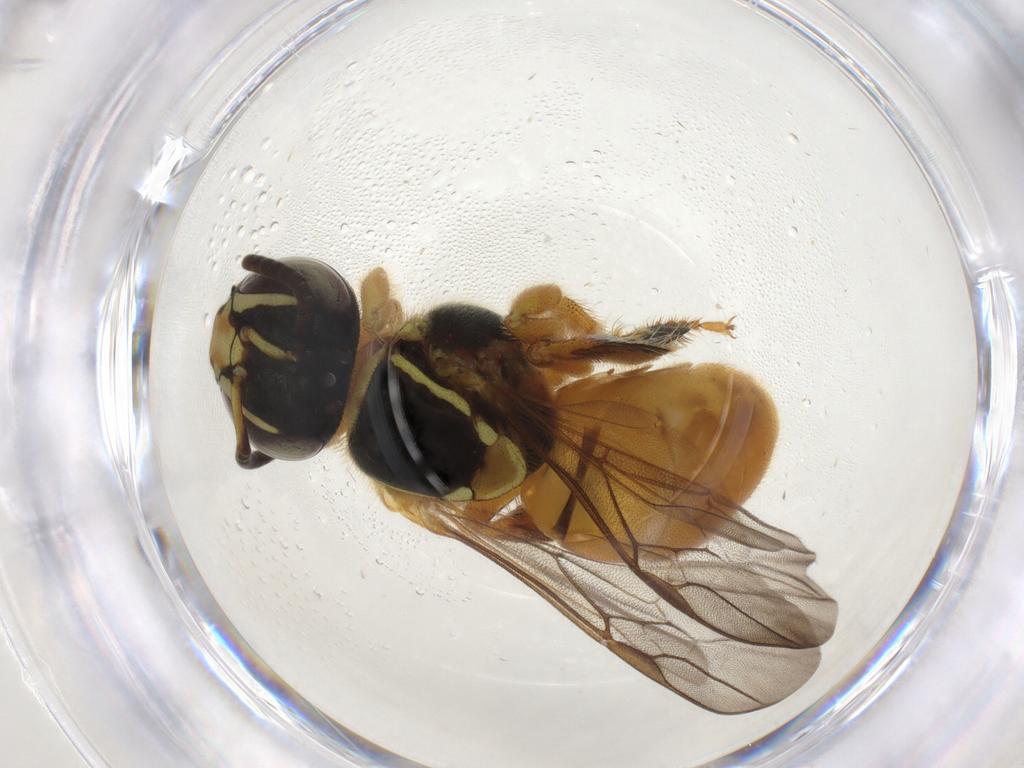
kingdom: Animalia
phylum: Arthropoda
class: Insecta
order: Hymenoptera
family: Apidae
